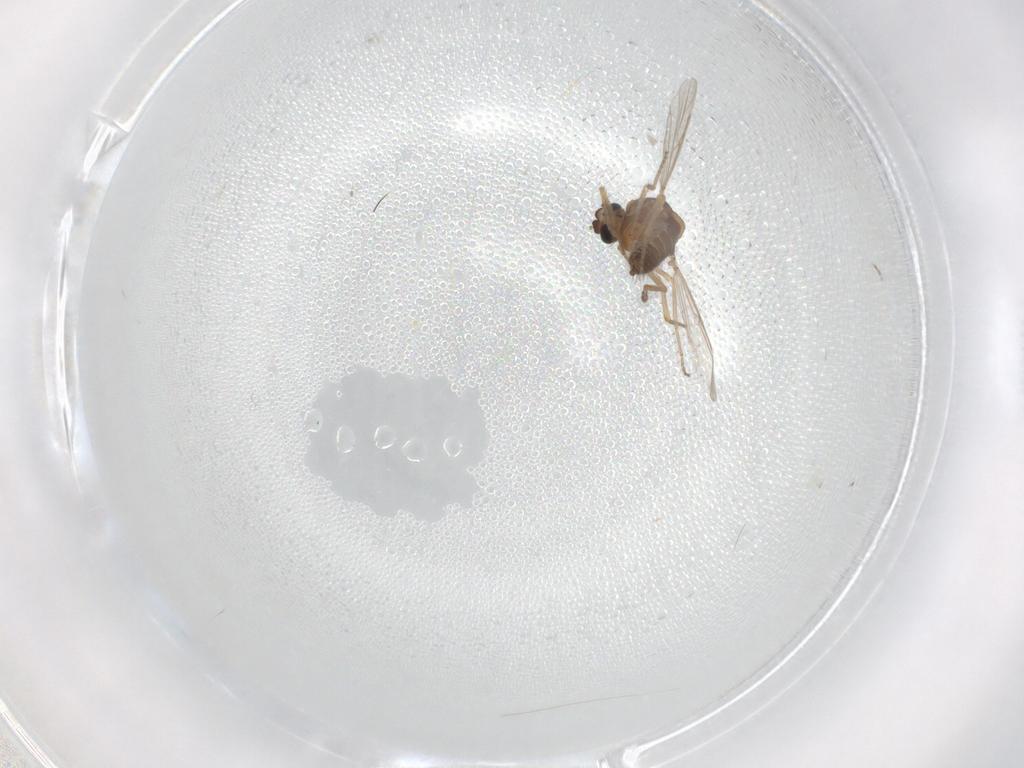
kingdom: Animalia
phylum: Arthropoda
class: Insecta
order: Diptera
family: Ceratopogonidae
